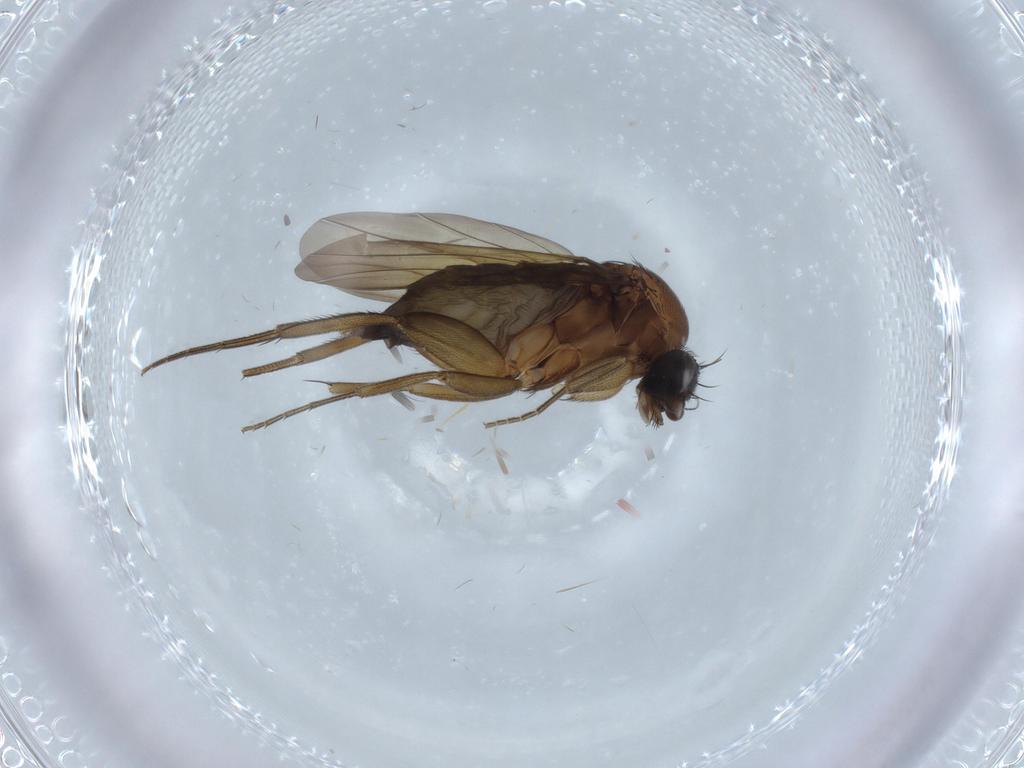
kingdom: Animalia
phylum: Arthropoda
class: Insecta
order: Diptera
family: Phoridae
